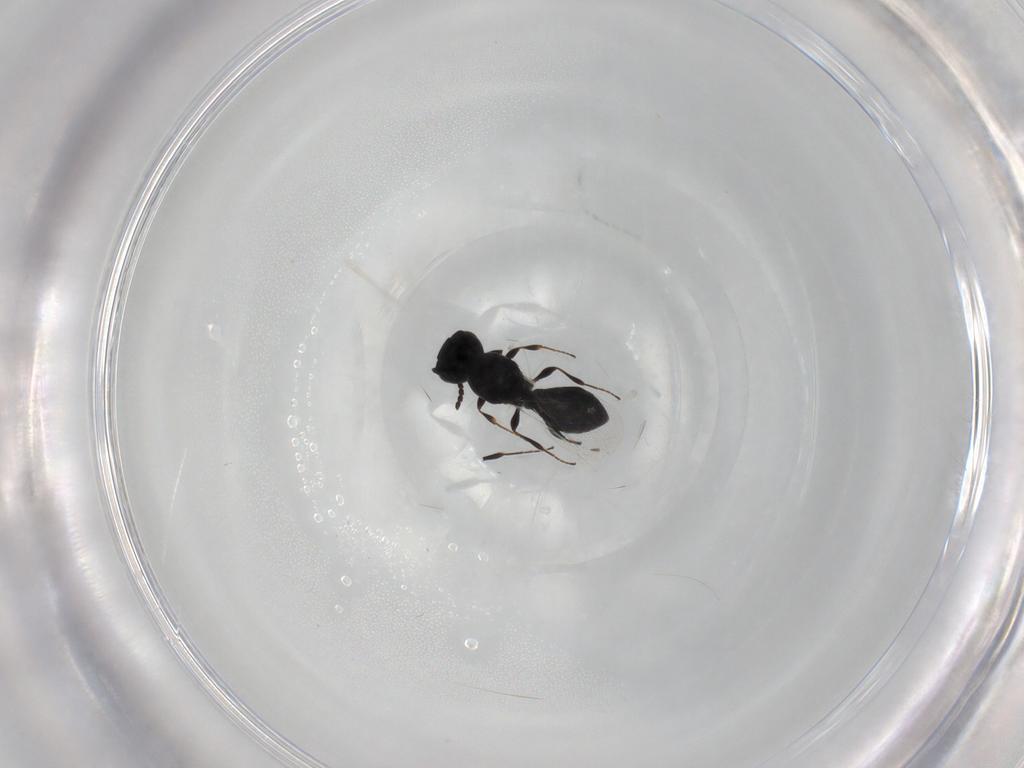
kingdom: Animalia
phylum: Arthropoda
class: Insecta
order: Hymenoptera
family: Platygastridae
